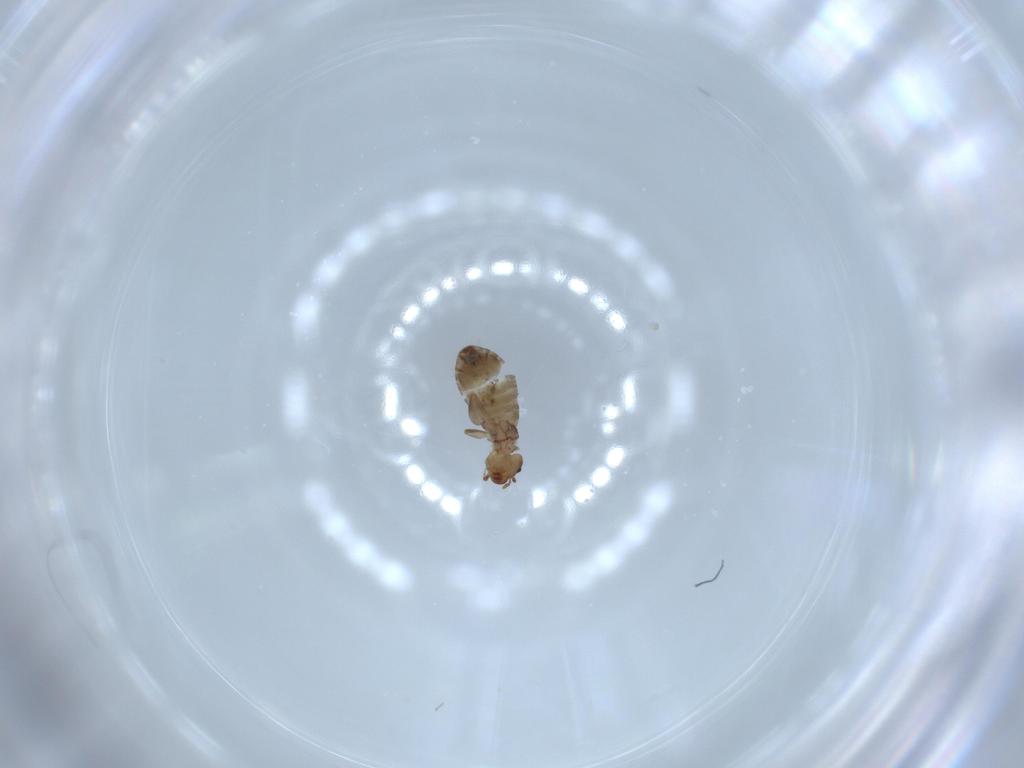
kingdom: Animalia
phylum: Arthropoda
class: Insecta
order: Psocodea
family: Liposcelididae
